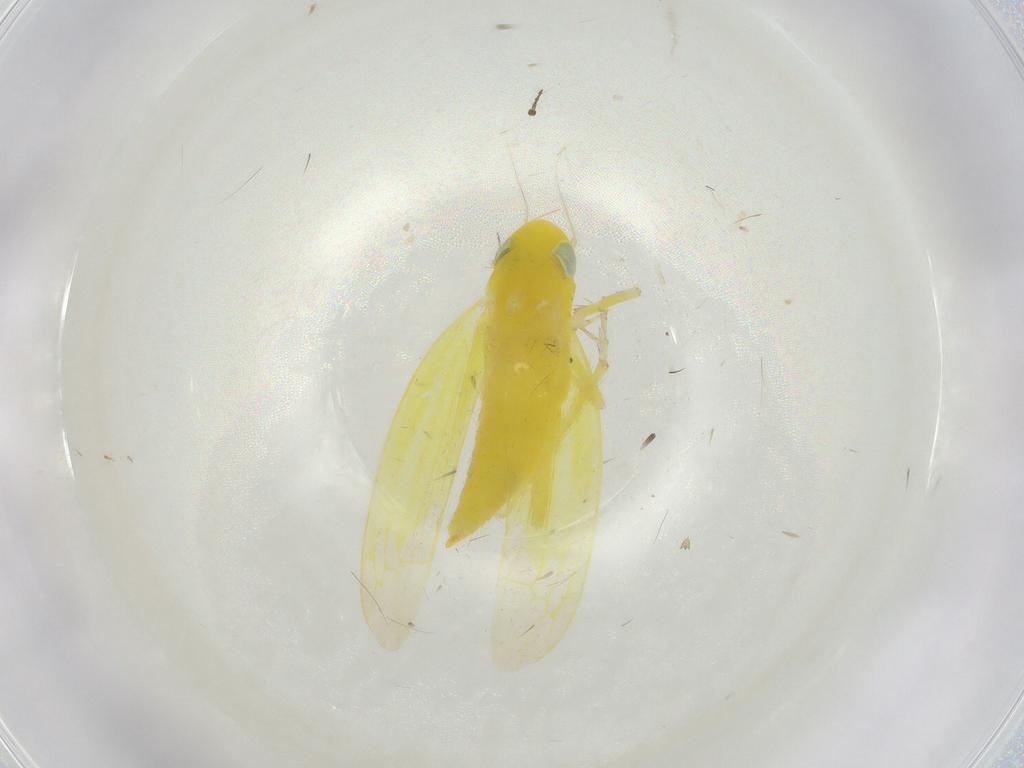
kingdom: Animalia
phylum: Arthropoda
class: Insecta
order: Hemiptera
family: Cicadellidae
